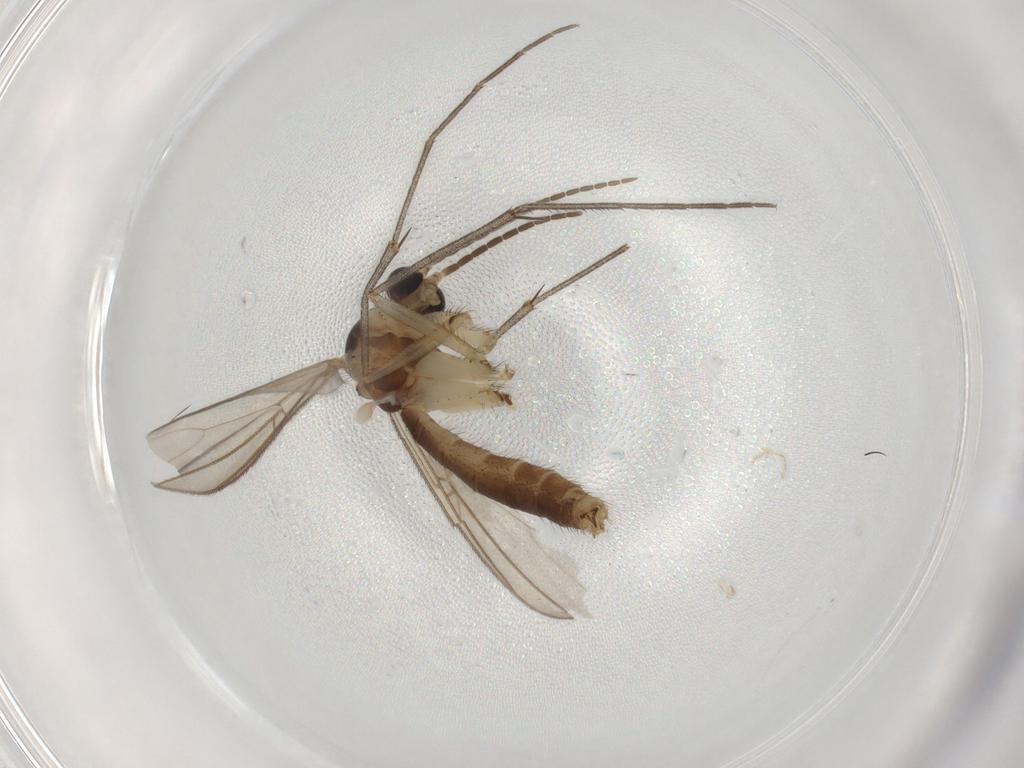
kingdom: Animalia
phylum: Arthropoda
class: Insecta
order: Diptera
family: Mycetophilidae
